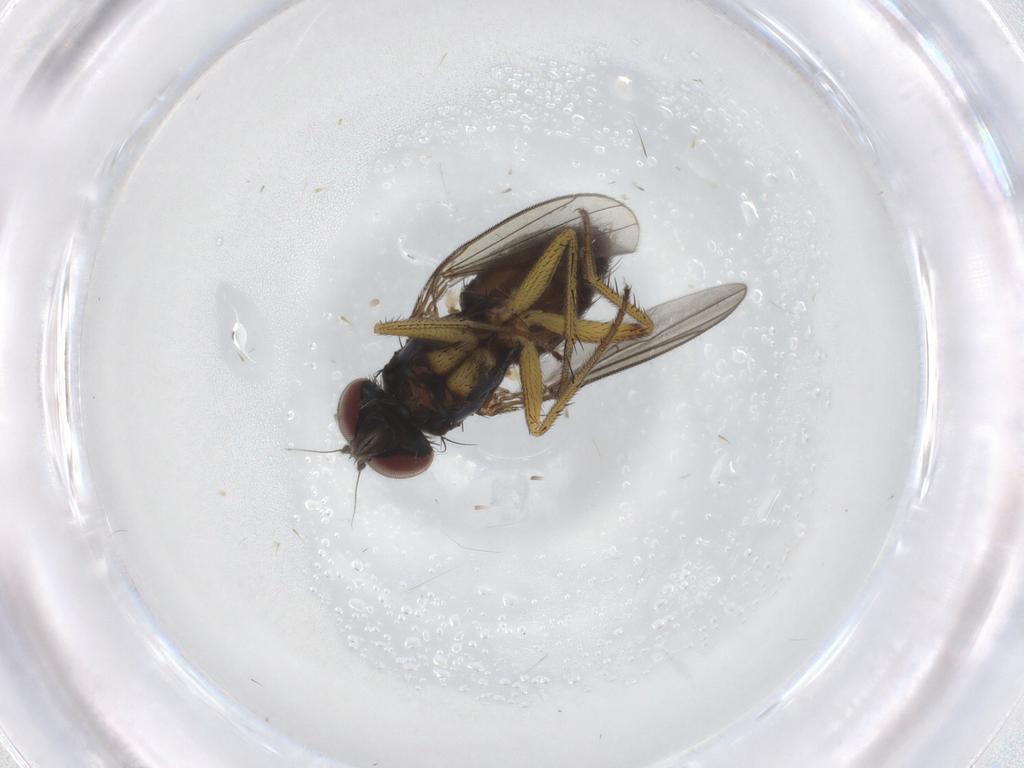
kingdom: Animalia
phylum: Arthropoda
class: Insecta
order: Diptera
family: Dolichopodidae
